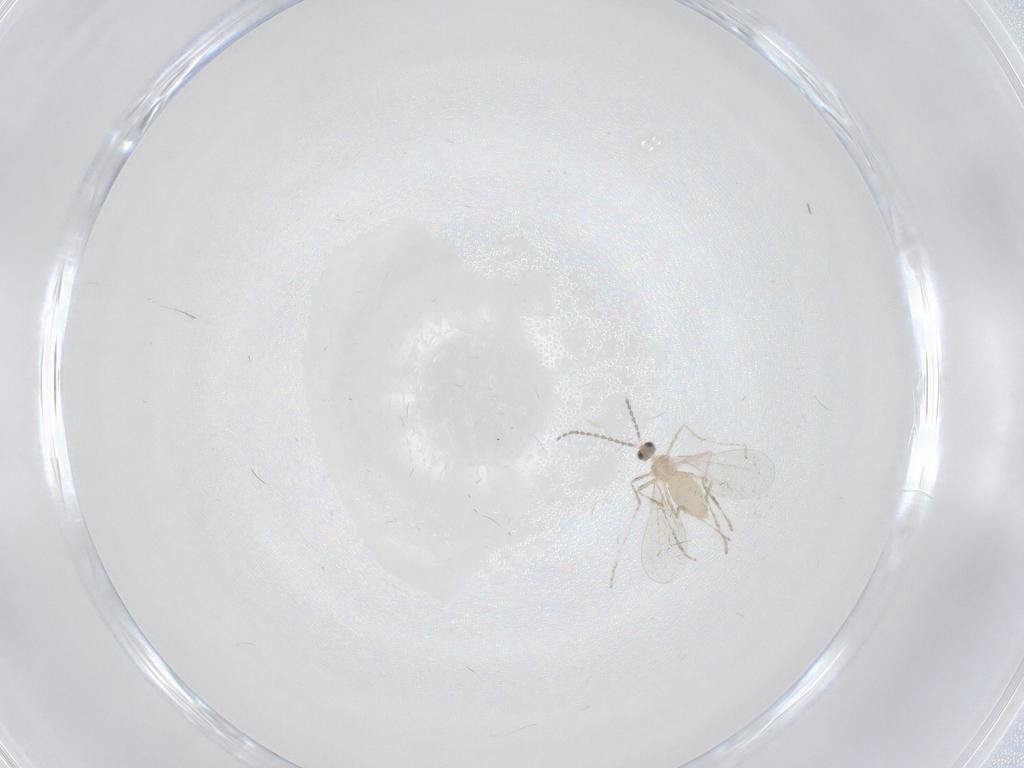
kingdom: Animalia
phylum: Arthropoda
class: Insecta
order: Diptera
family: Cecidomyiidae
